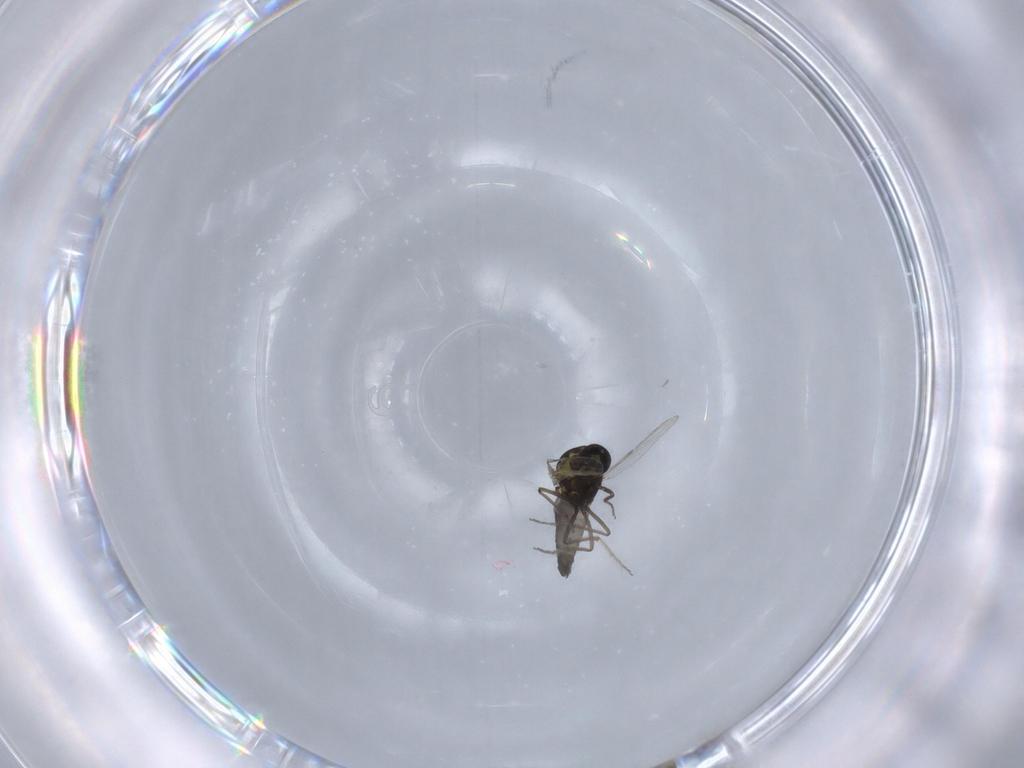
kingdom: Animalia
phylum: Arthropoda
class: Insecta
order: Diptera
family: Ceratopogonidae
